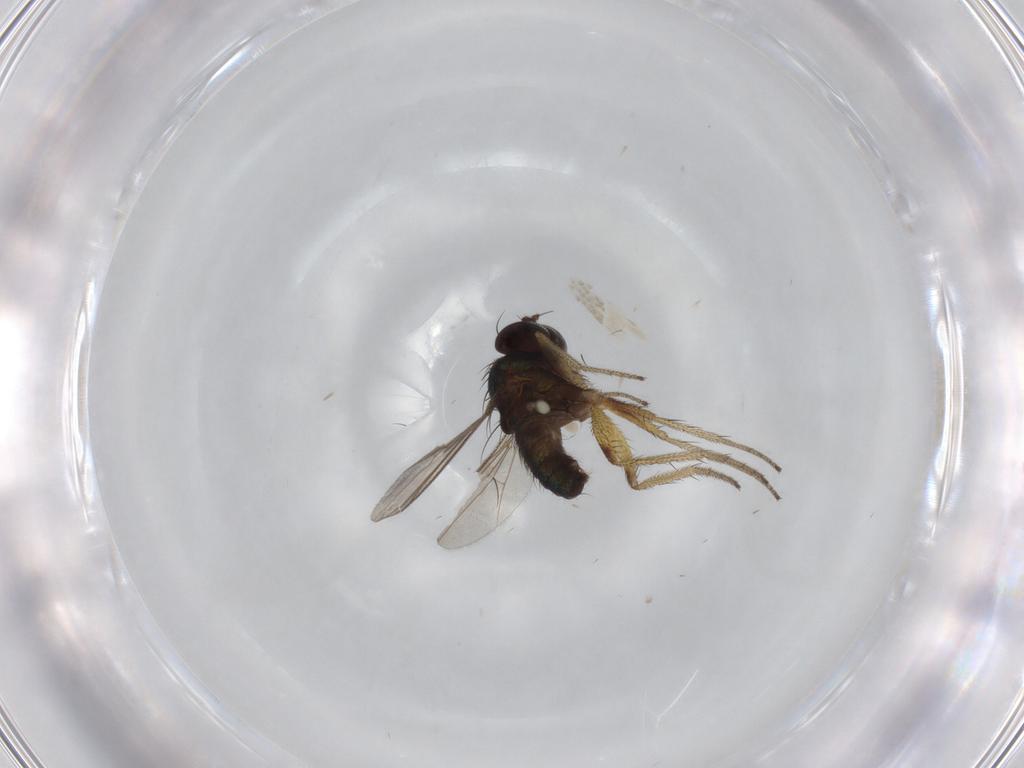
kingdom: Animalia
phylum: Arthropoda
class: Insecta
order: Diptera
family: Dolichopodidae
